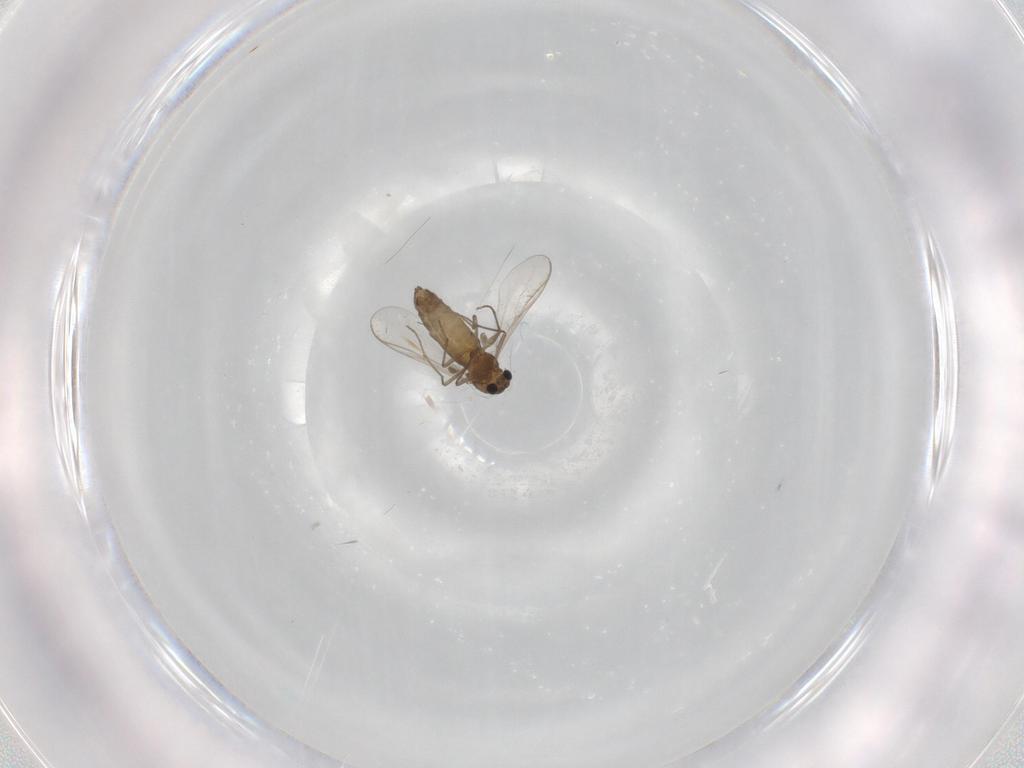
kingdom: Animalia
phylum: Arthropoda
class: Insecta
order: Diptera
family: Chironomidae
